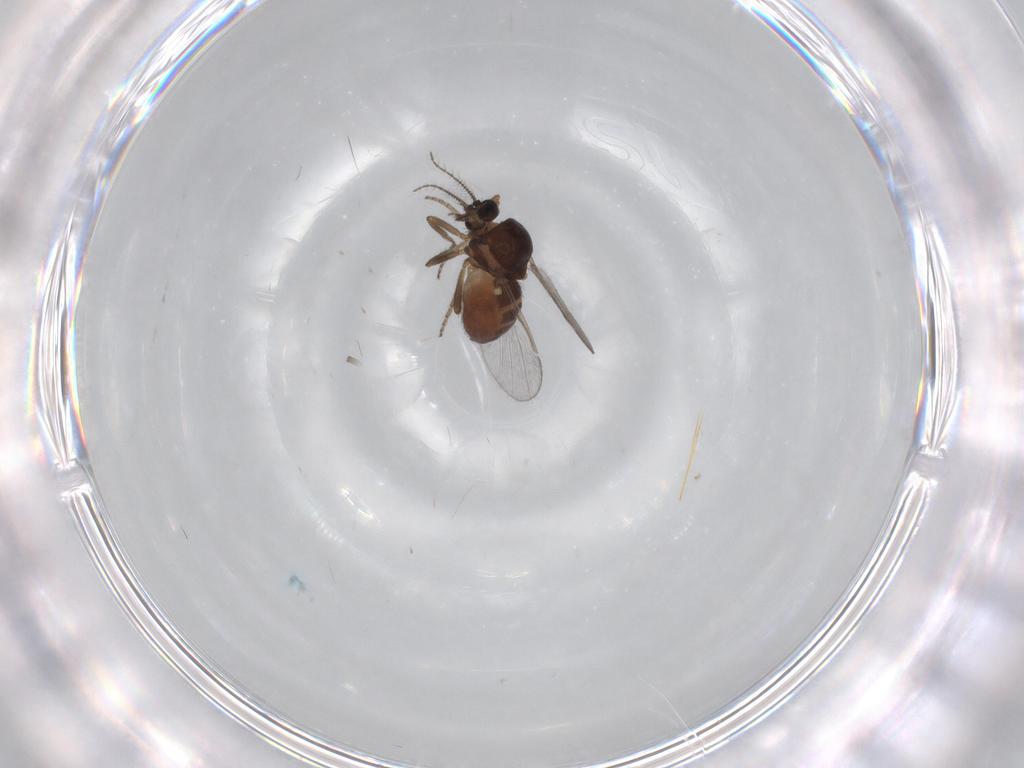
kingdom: Animalia
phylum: Arthropoda
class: Insecta
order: Diptera
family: Ceratopogonidae
